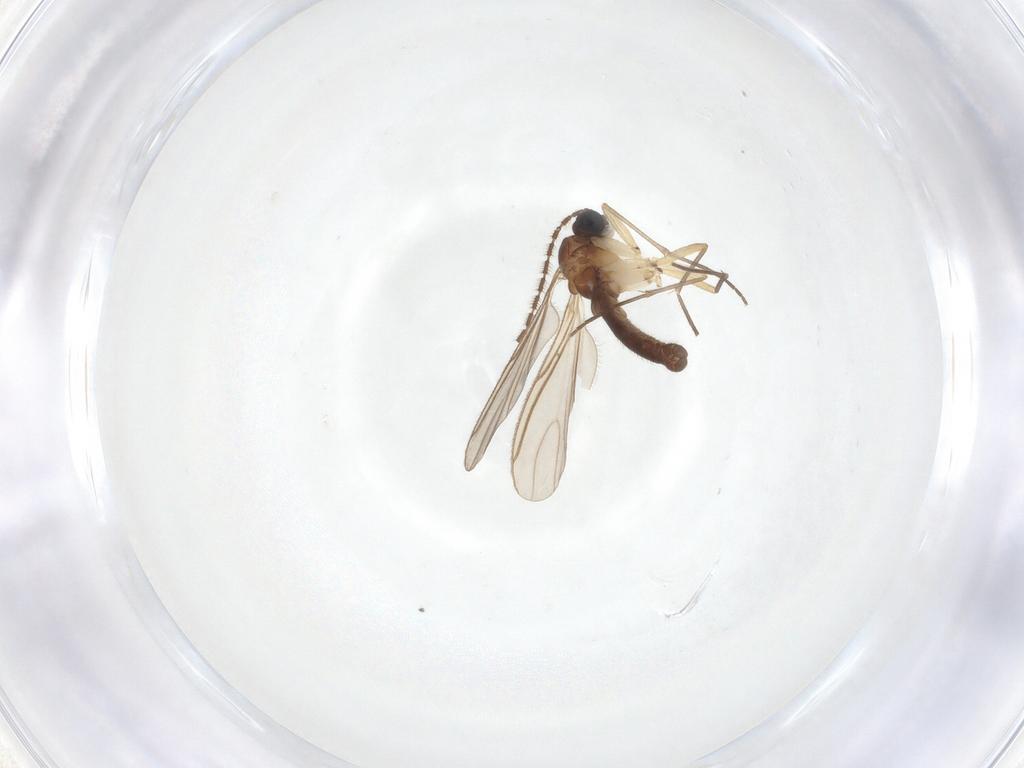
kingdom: Animalia
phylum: Arthropoda
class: Insecta
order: Diptera
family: Sciaridae
